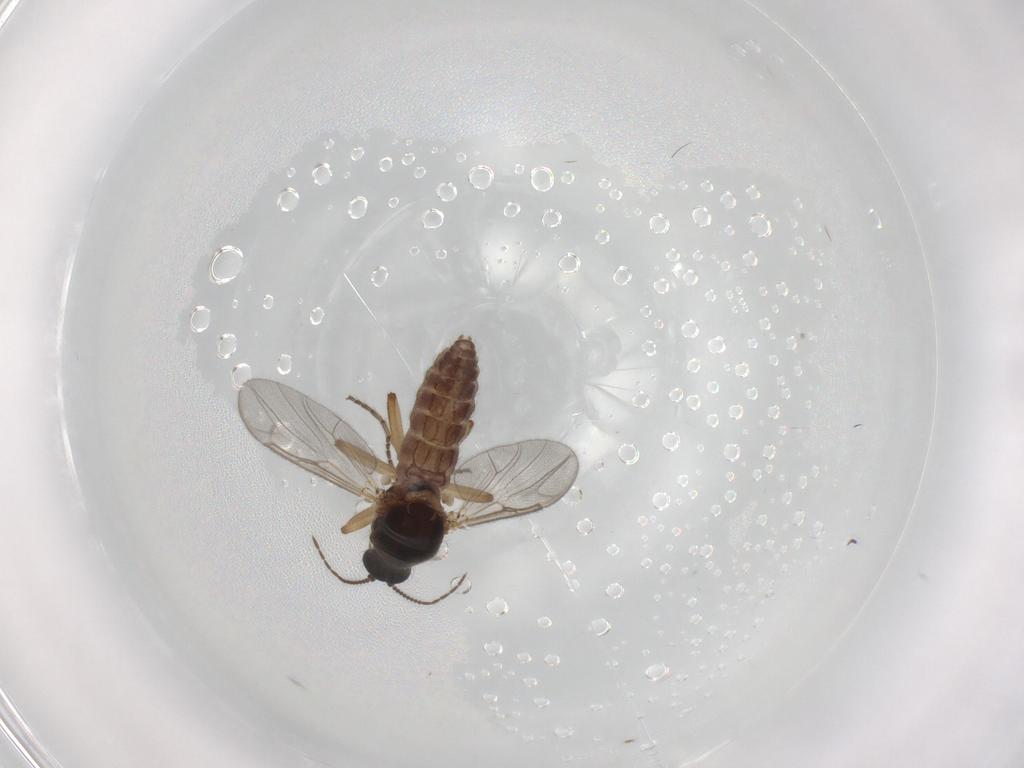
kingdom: Animalia
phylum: Arthropoda
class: Insecta
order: Diptera
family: Ceratopogonidae
